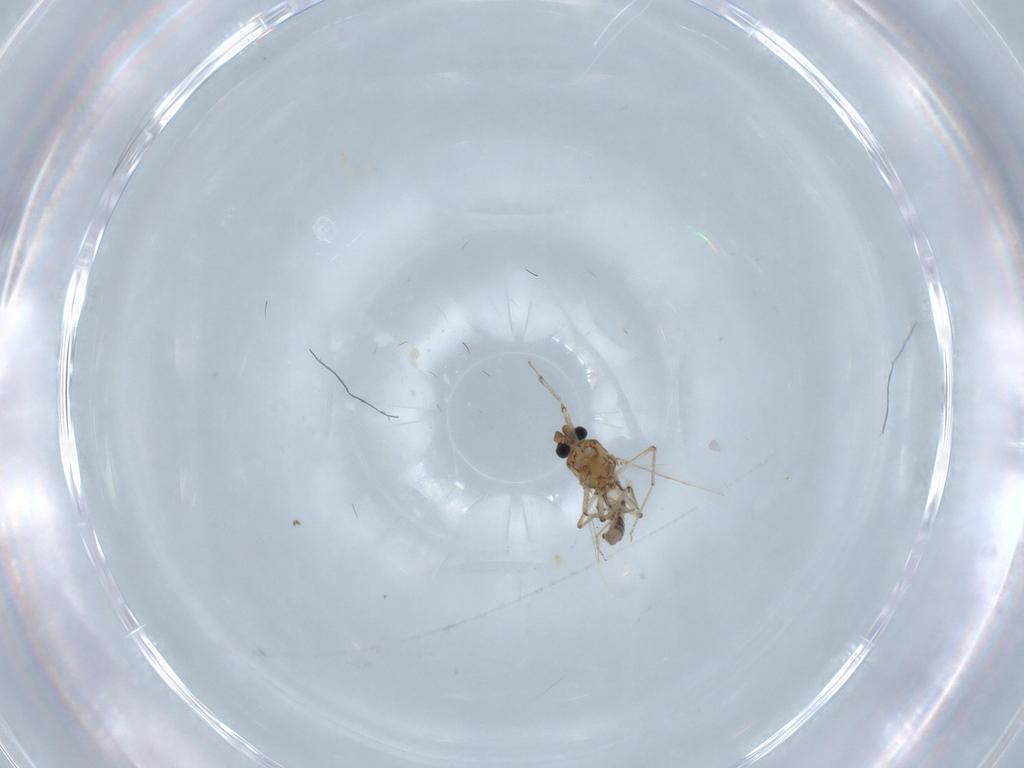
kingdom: Animalia
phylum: Arthropoda
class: Insecta
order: Diptera
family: Ceratopogonidae
